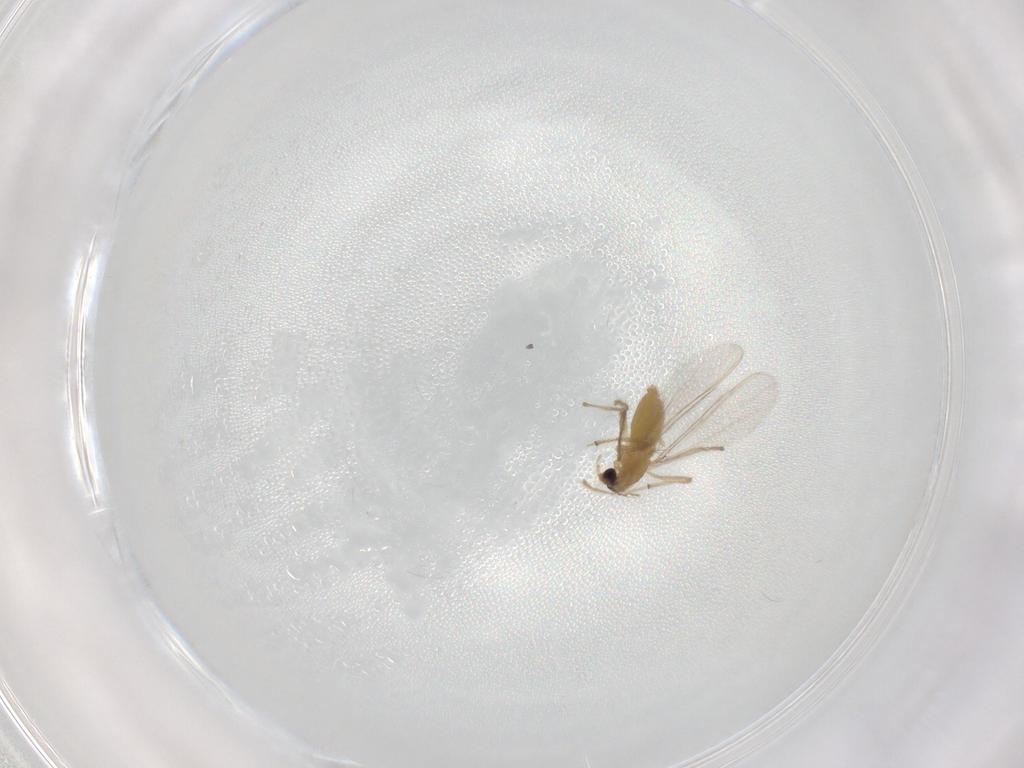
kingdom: Animalia
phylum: Arthropoda
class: Insecta
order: Diptera
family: Chironomidae
